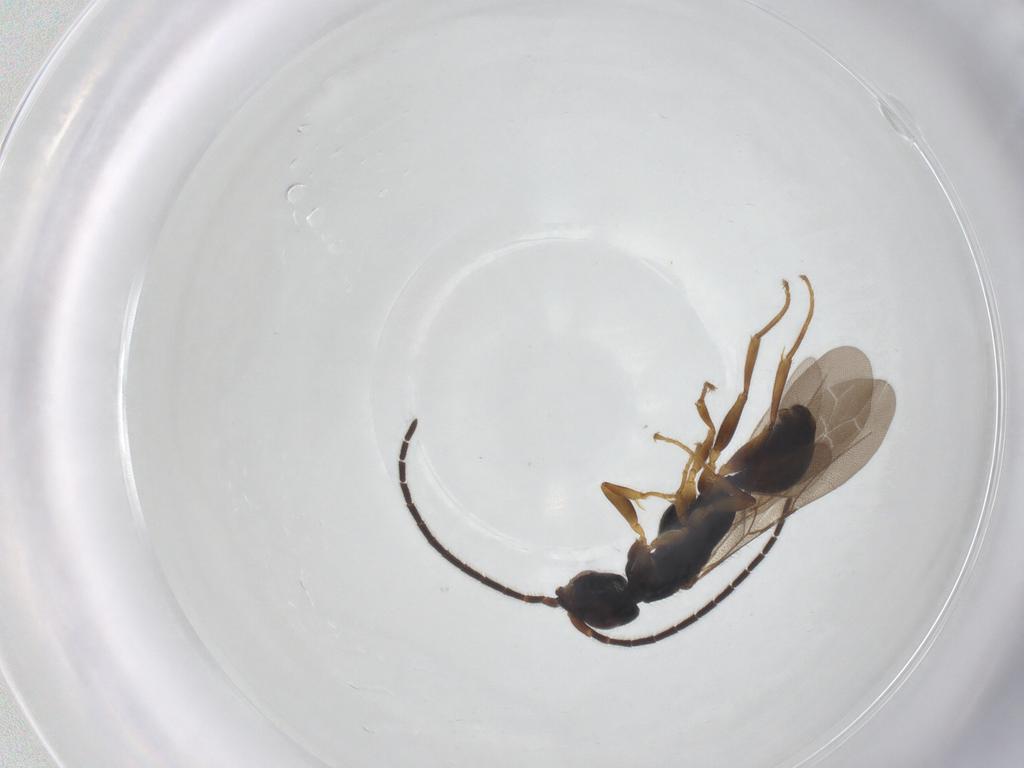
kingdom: Animalia
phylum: Arthropoda
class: Insecta
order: Hymenoptera
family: Bethylidae
